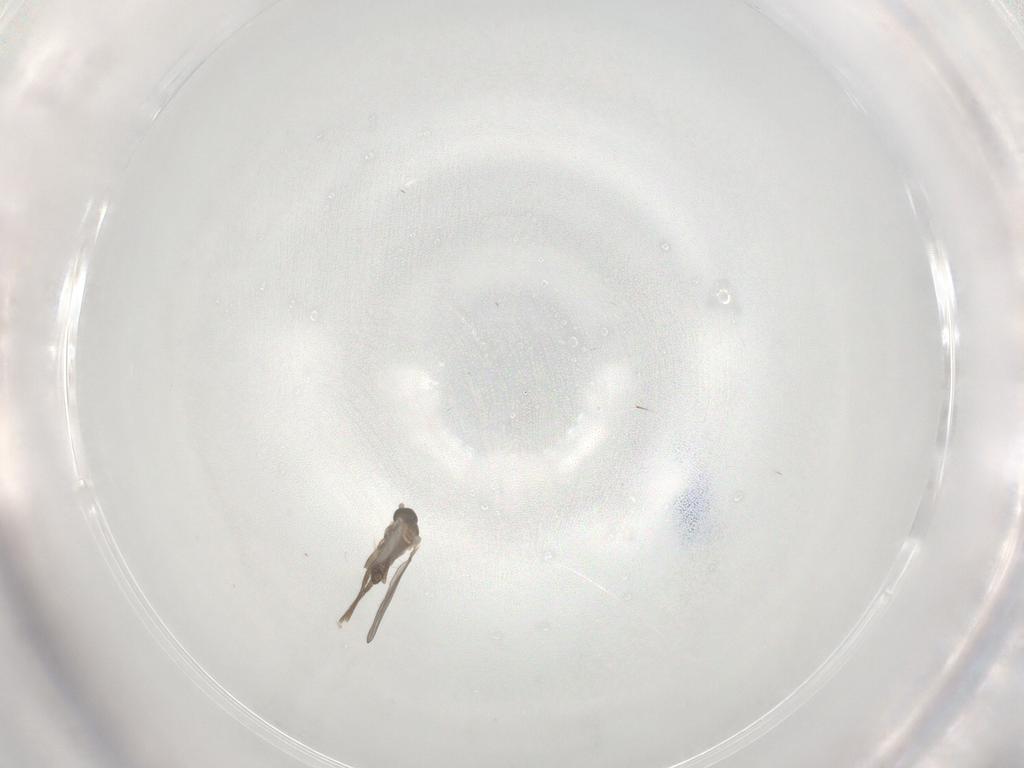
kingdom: Animalia
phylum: Arthropoda
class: Insecta
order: Diptera
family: Cecidomyiidae
